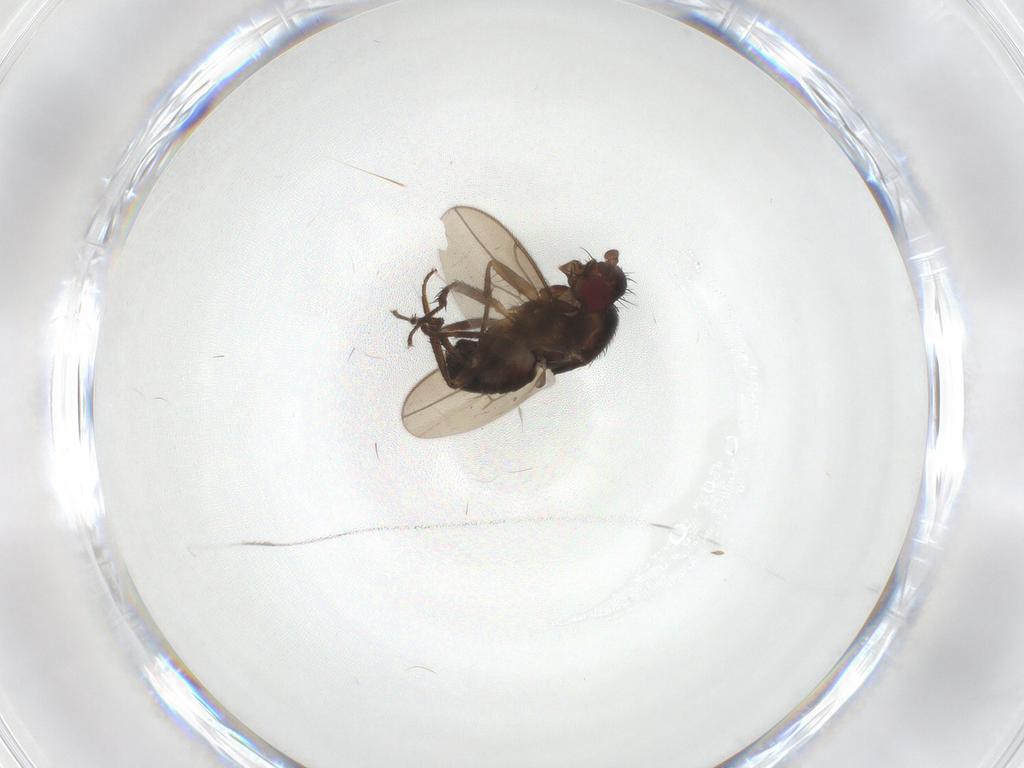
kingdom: Animalia
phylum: Arthropoda
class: Insecta
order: Diptera
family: Sphaeroceridae
